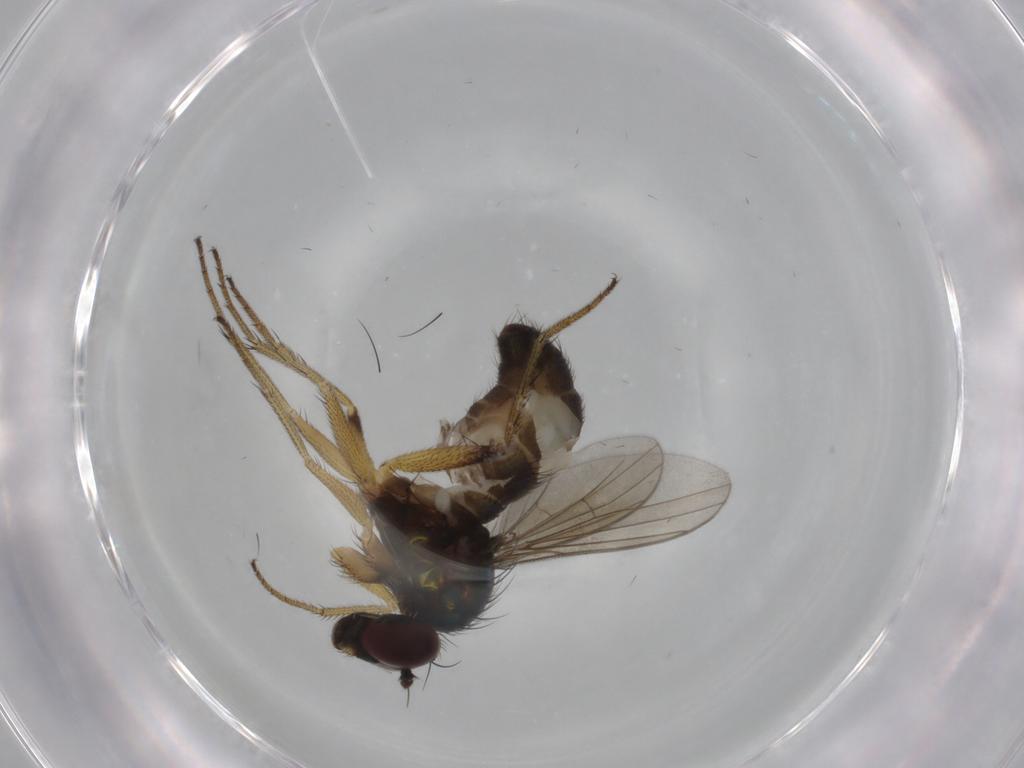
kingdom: Animalia
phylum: Arthropoda
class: Insecta
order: Diptera
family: Dolichopodidae
